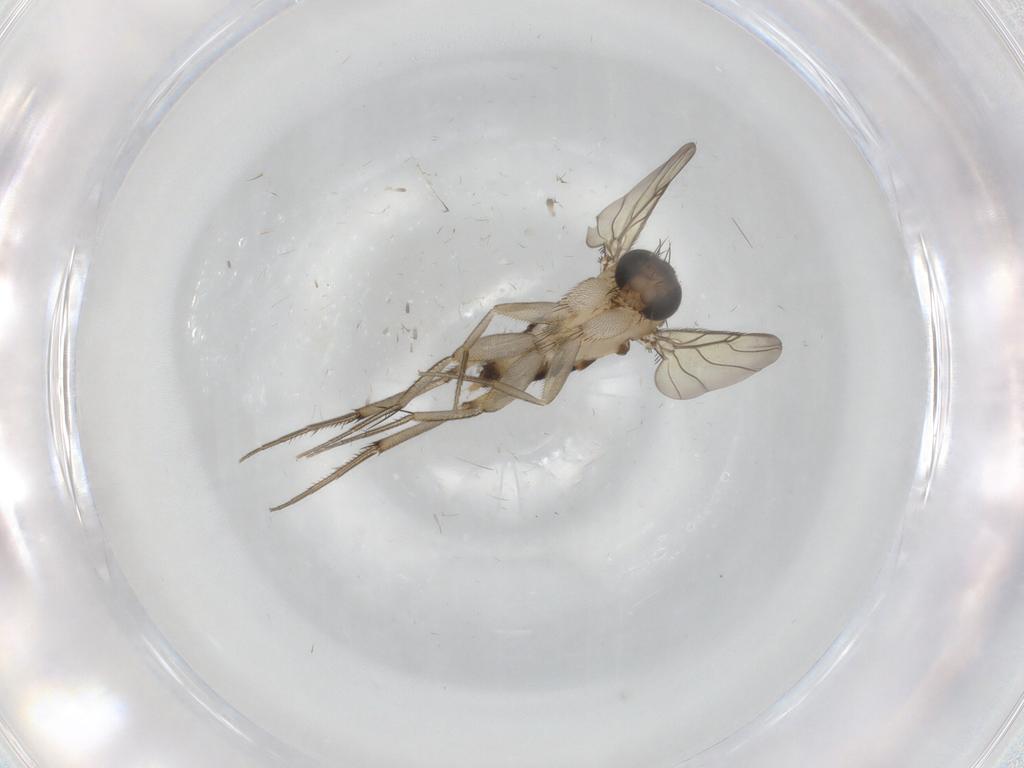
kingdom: Animalia
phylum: Arthropoda
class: Insecta
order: Diptera
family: Phoridae
